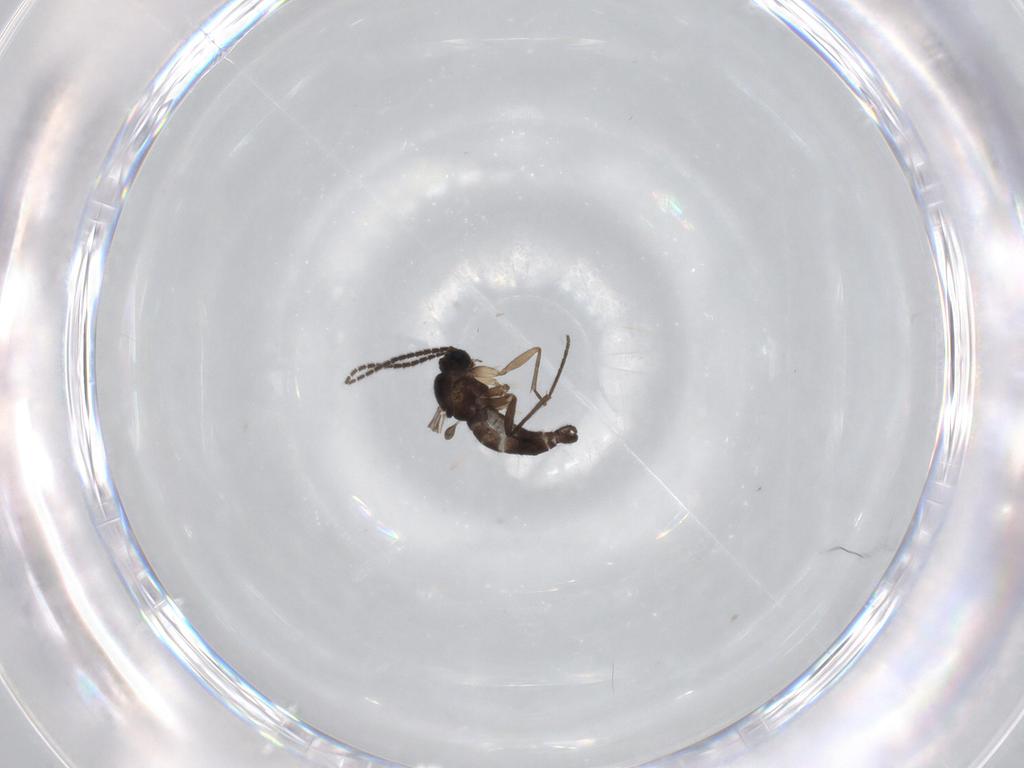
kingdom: Animalia
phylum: Arthropoda
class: Insecta
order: Diptera
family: Sciaridae
